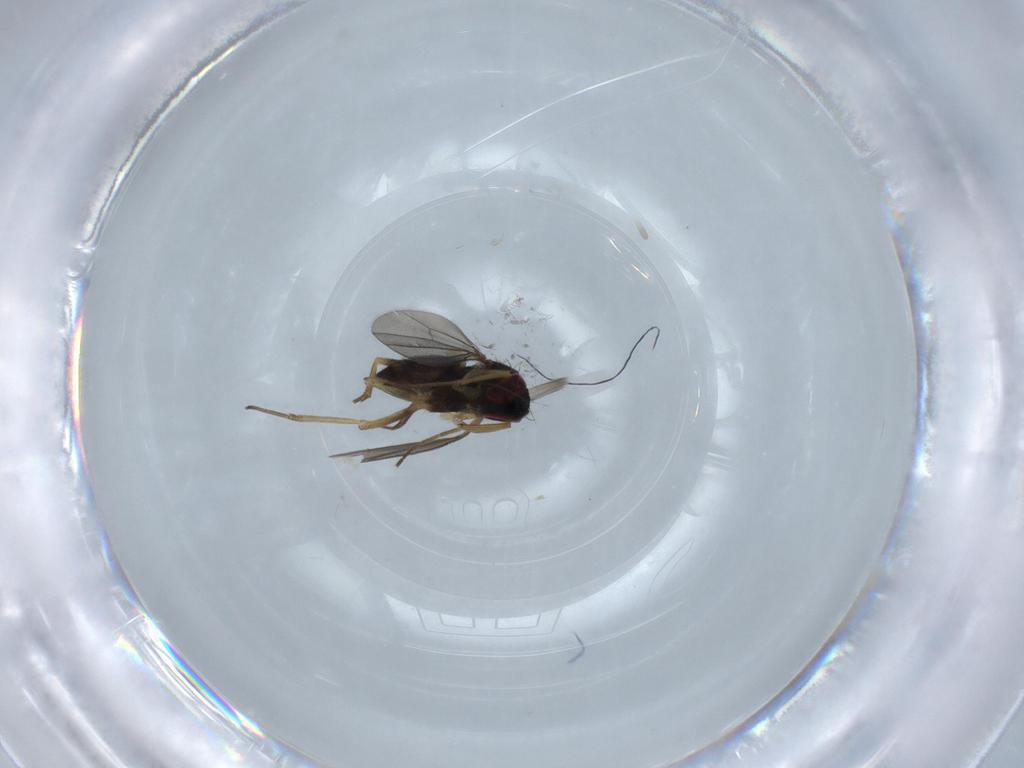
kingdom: Animalia
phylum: Arthropoda
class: Insecta
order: Diptera
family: Dolichopodidae
